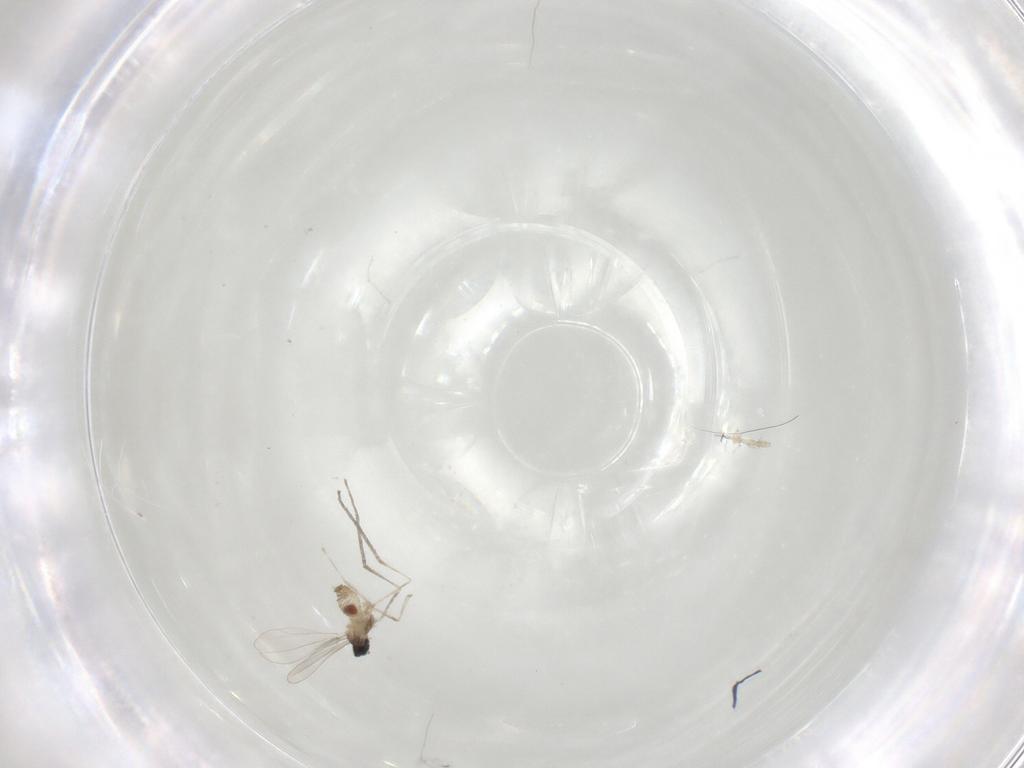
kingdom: Animalia
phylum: Arthropoda
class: Insecta
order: Diptera
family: Cecidomyiidae
